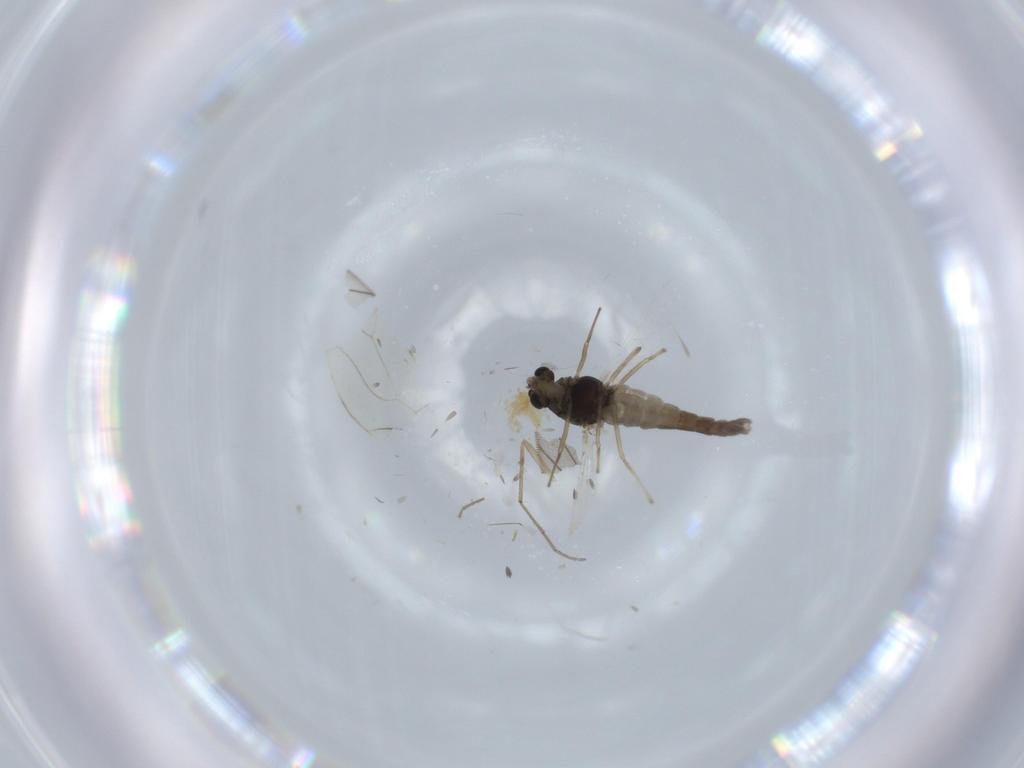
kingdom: Animalia
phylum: Arthropoda
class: Insecta
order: Diptera
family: Chironomidae
